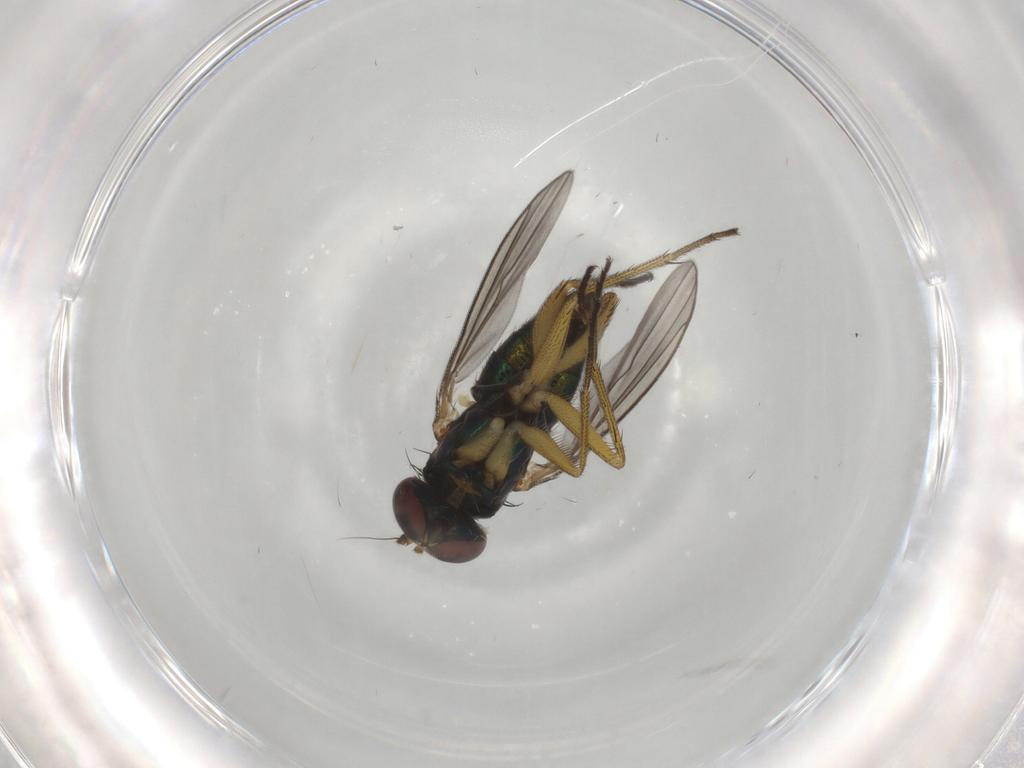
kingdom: Animalia
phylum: Arthropoda
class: Insecta
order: Diptera
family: Dolichopodidae
